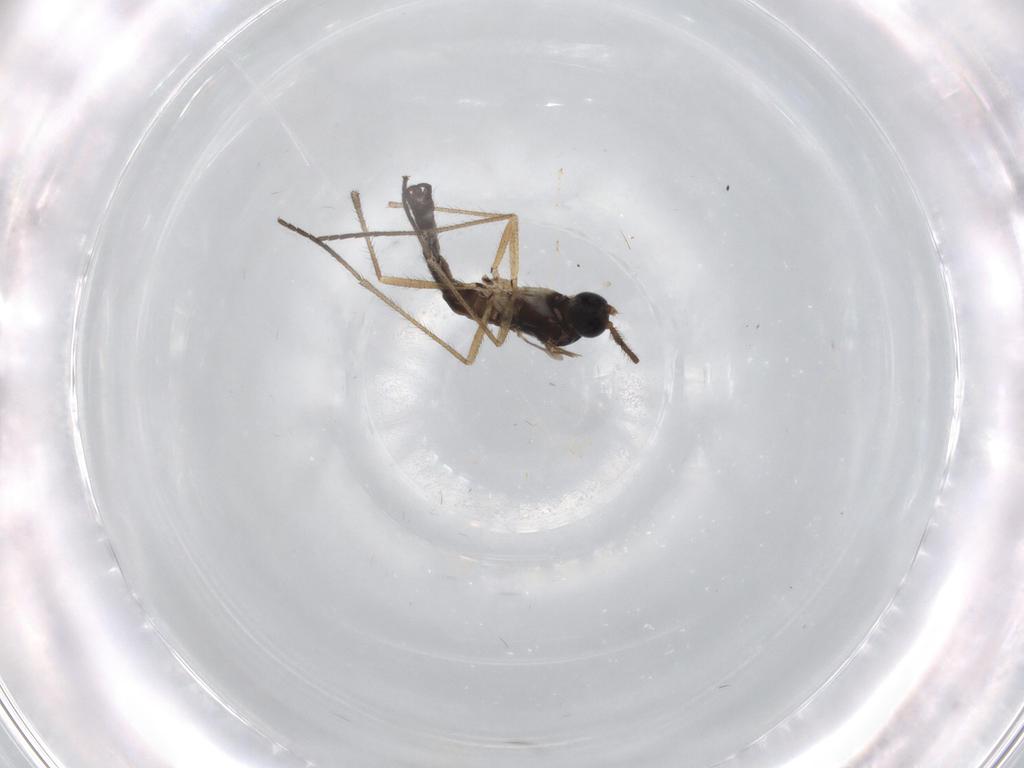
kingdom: Animalia
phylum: Arthropoda
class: Insecta
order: Diptera
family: Sciaridae
